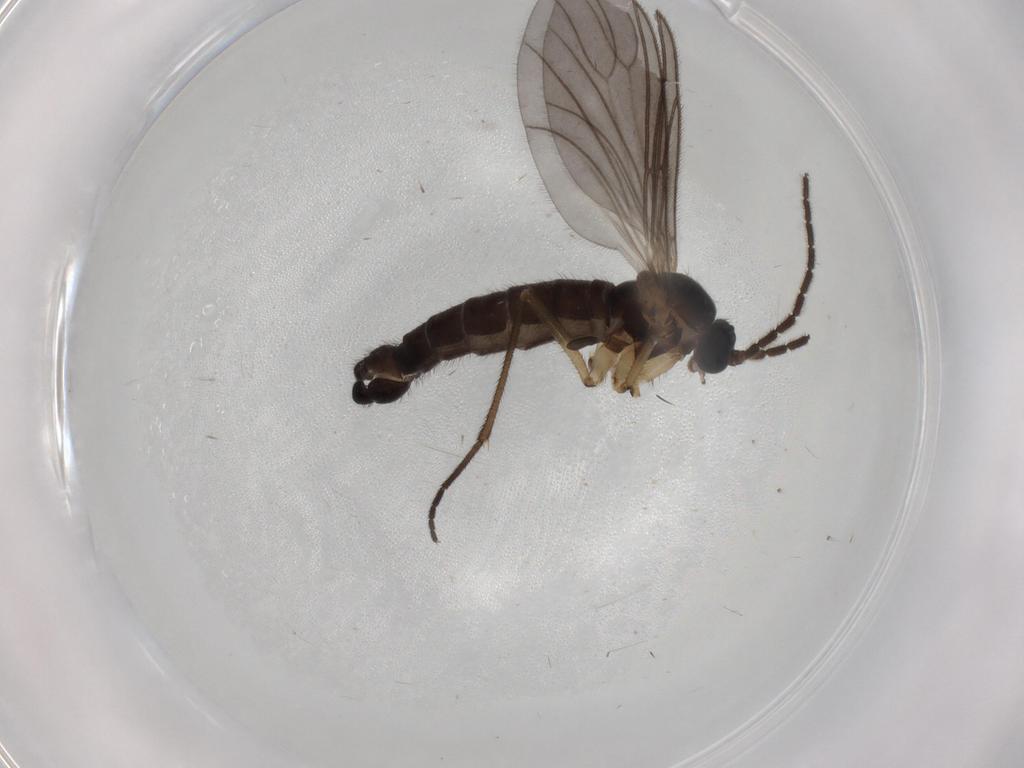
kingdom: Animalia
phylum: Arthropoda
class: Insecta
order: Diptera
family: Sciaridae
